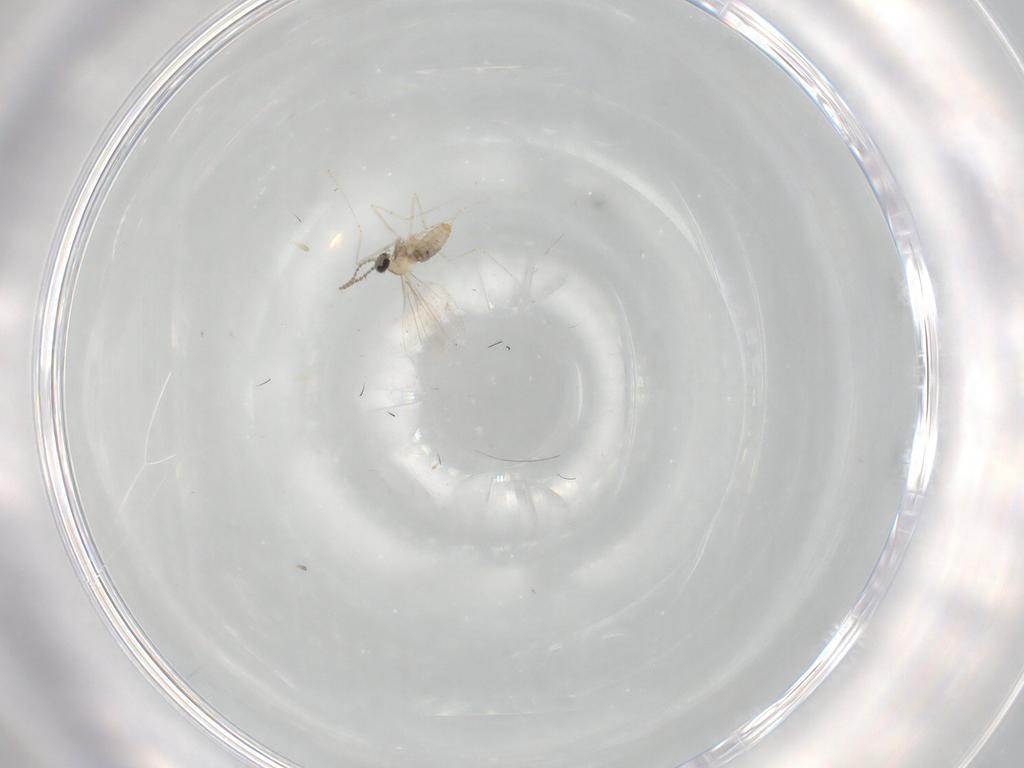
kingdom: Animalia
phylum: Arthropoda
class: Insecta
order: Diptera
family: Cecidomyiidae
